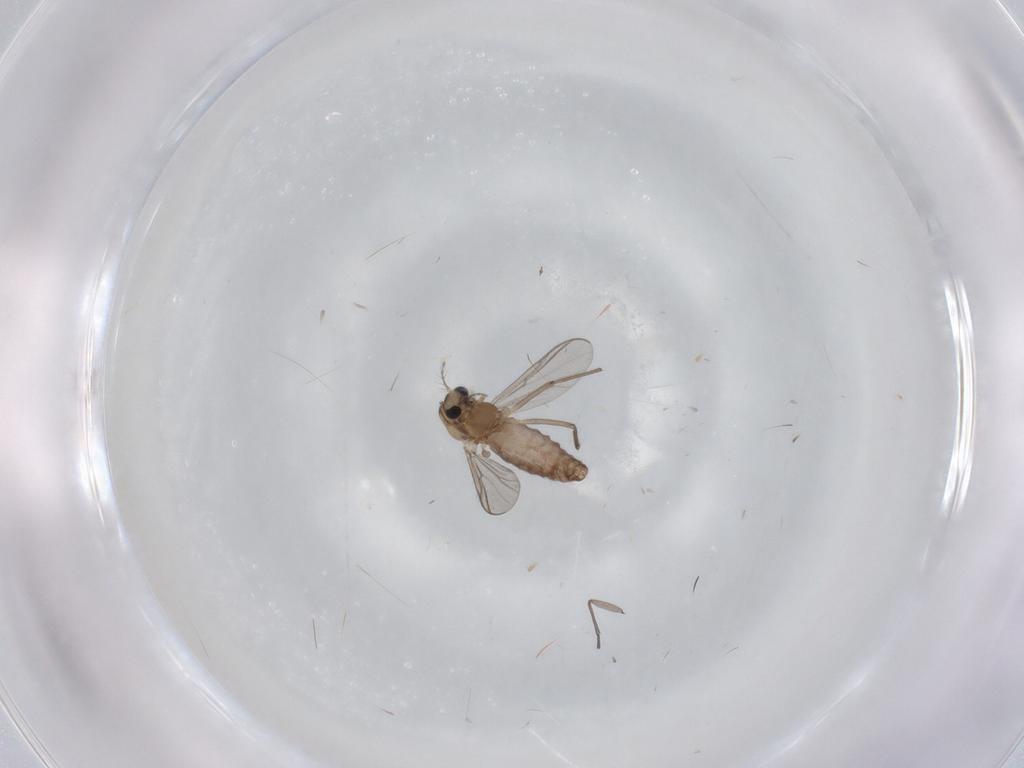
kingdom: Animalia
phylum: Arthropoda
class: Insecta
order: Diptera
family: Chironomidae
